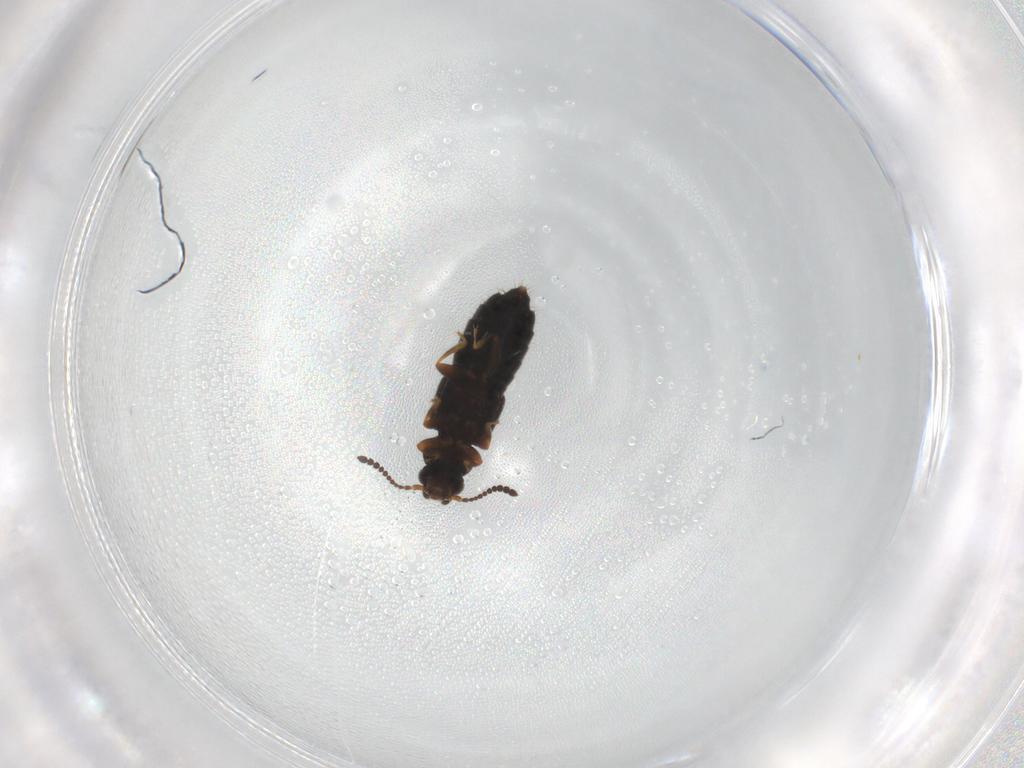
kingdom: Animalia
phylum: Arthropoda
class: Insecta
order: Coleoptera
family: Staphylinidae
